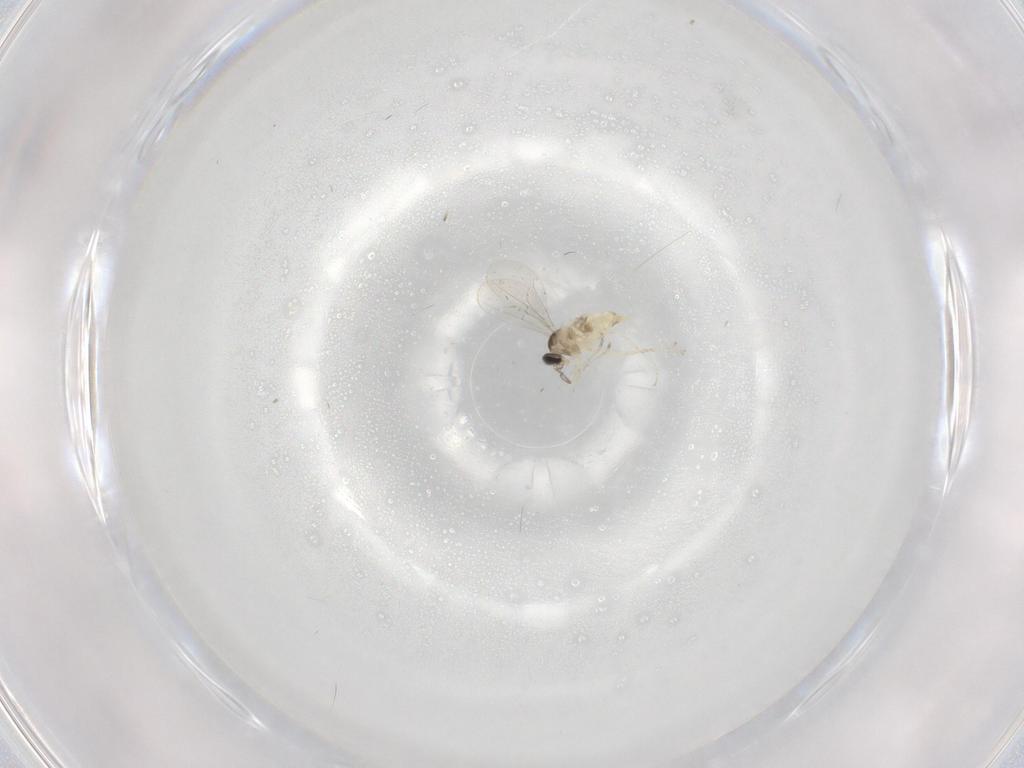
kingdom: Animalia
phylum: Arthropoda
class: Insecta
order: Diptera
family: Cecidomyiidae
